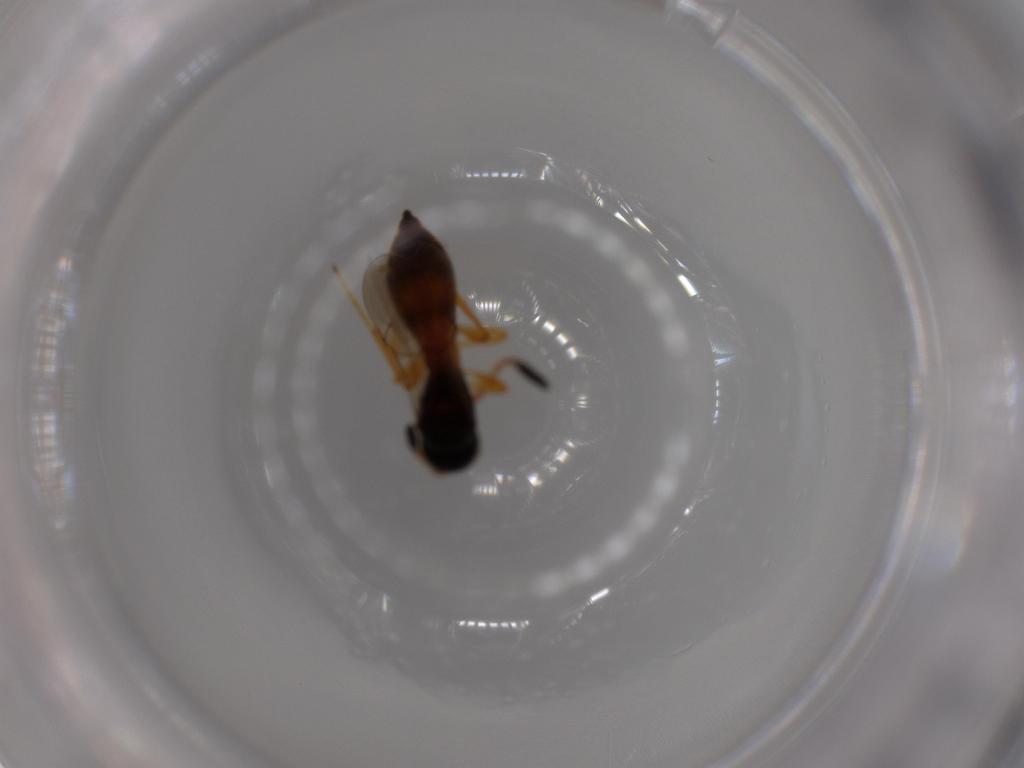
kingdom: Animalia
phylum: Arthropoda
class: Insecta
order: Hymenoptera
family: Scelionidae
